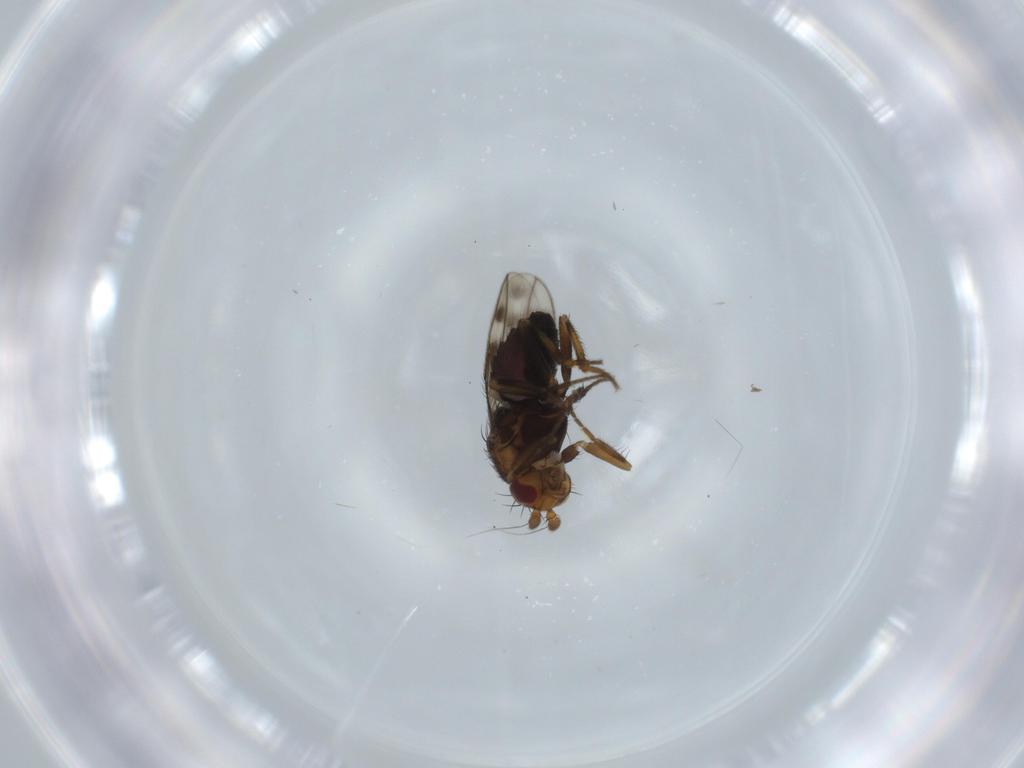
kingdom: Animalia
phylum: Arthropoda
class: Insecta
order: Diptera
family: Sphaeroceridae
